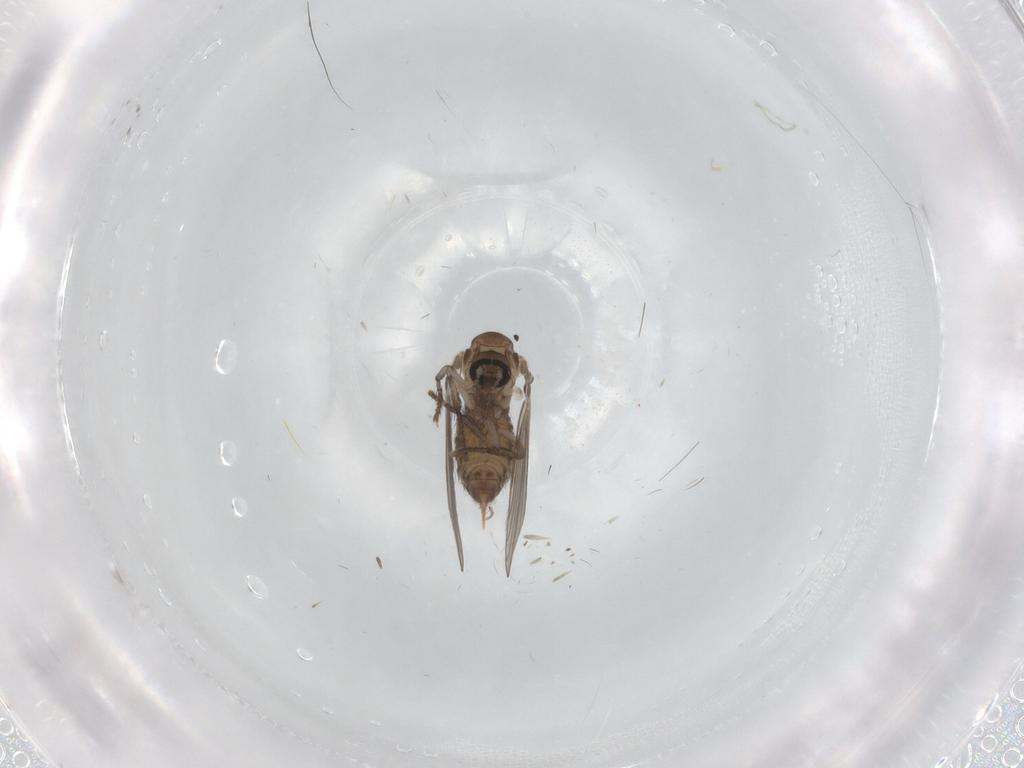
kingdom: Animalia
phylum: Arthropoda
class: Insecta
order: Diptera
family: Psychodidae
